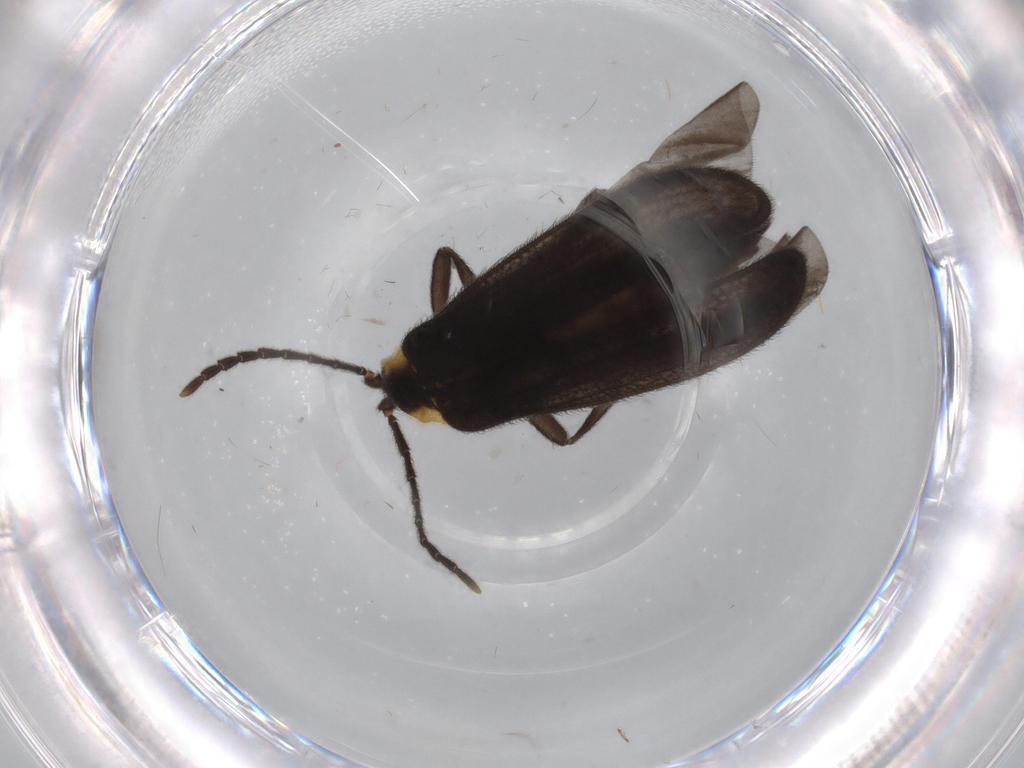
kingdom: Animalia
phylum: Arthropoda
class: Insecta
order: Coleoptera
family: Lycidae
